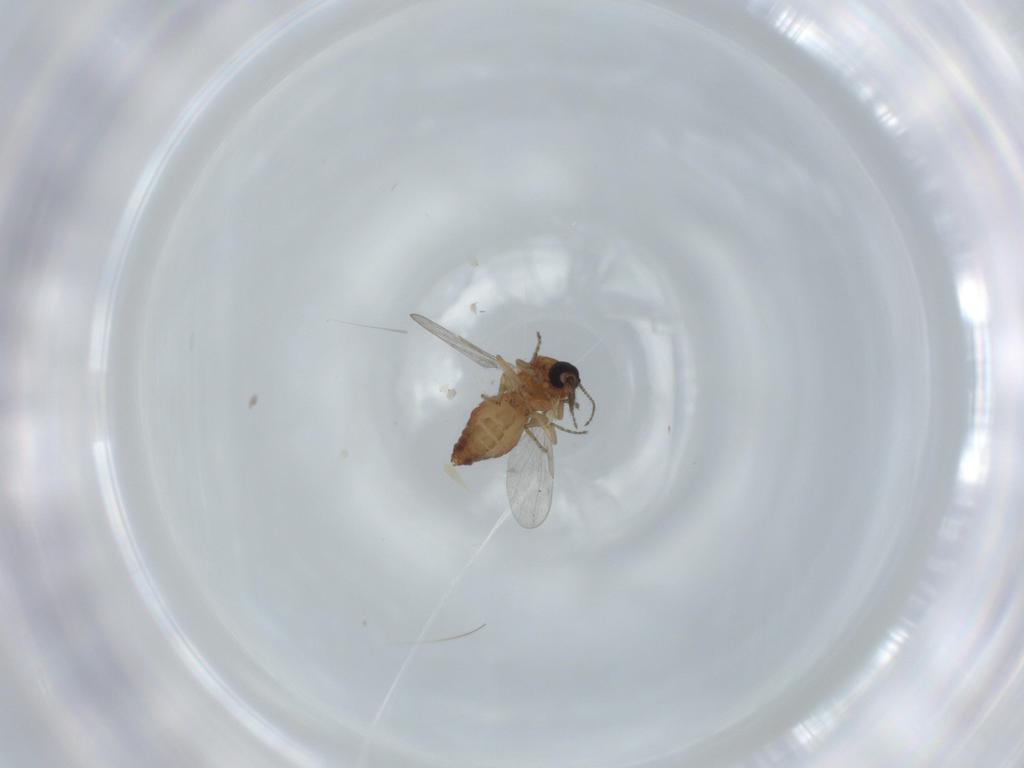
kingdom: Animalia
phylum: Arthropoda
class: Insecta
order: Diptera
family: Ceratopogonidae
